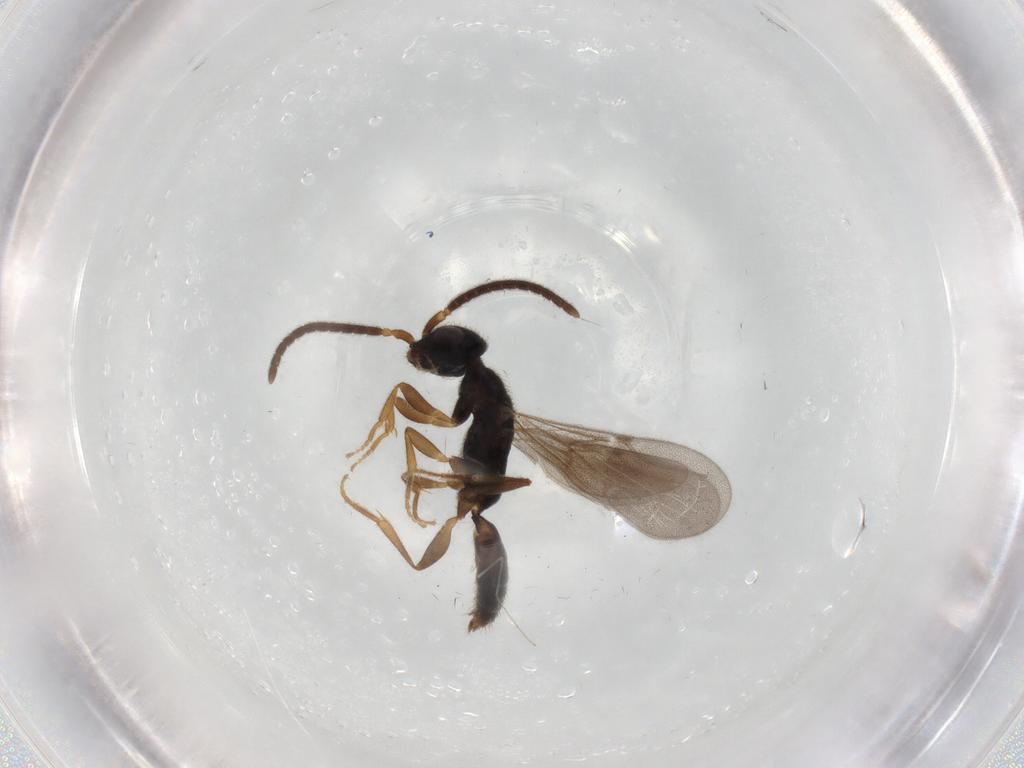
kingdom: Animalia
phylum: Arthropoda
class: Insecta
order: Hymenoptera
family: Bethylidae
